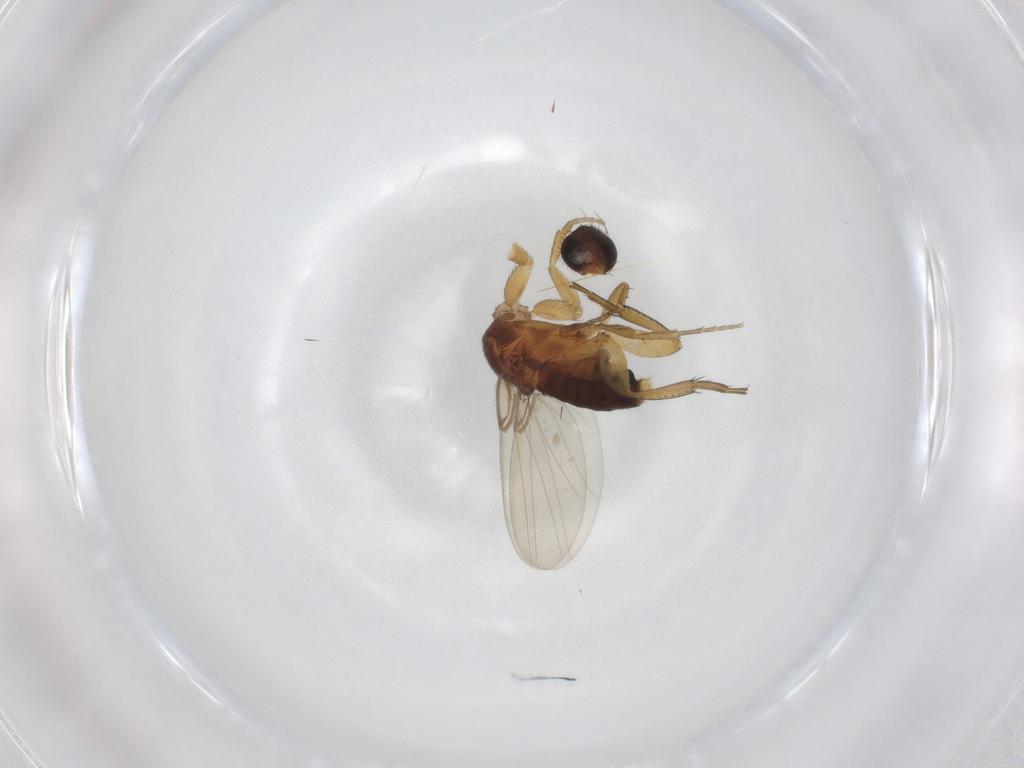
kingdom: Animalia
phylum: Arthropoda
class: Insecta
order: Diptera
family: Phoridae
